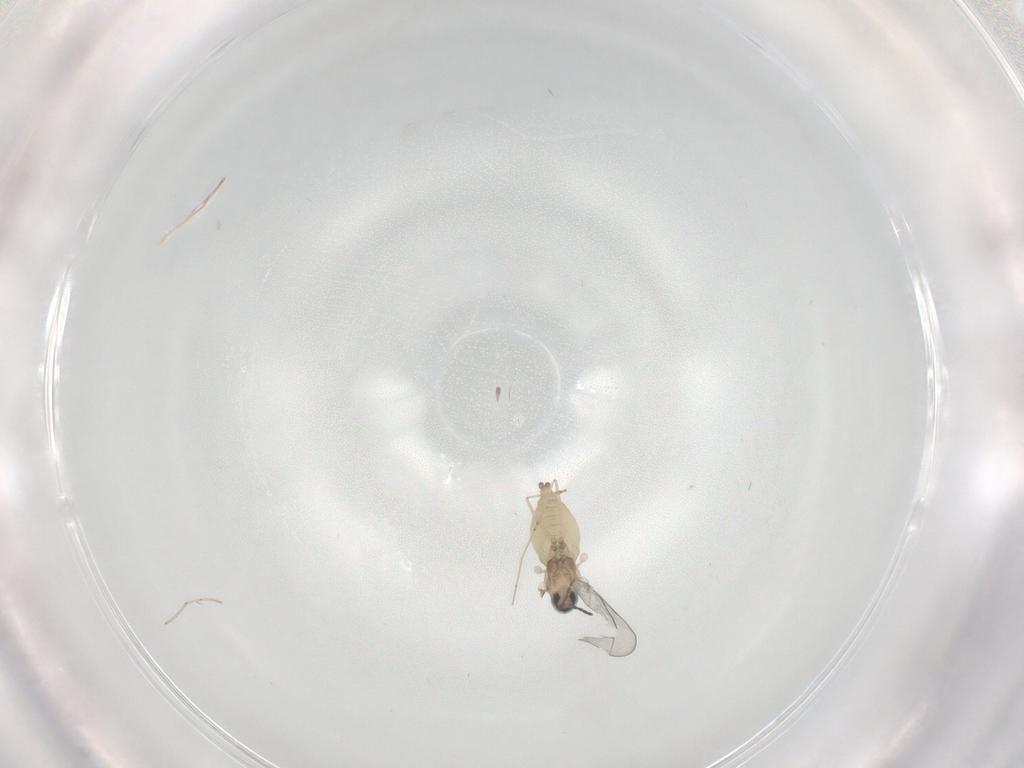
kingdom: Animalia
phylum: Arthropoda
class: Insecta
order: Diptera
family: Cecidomyiidae
